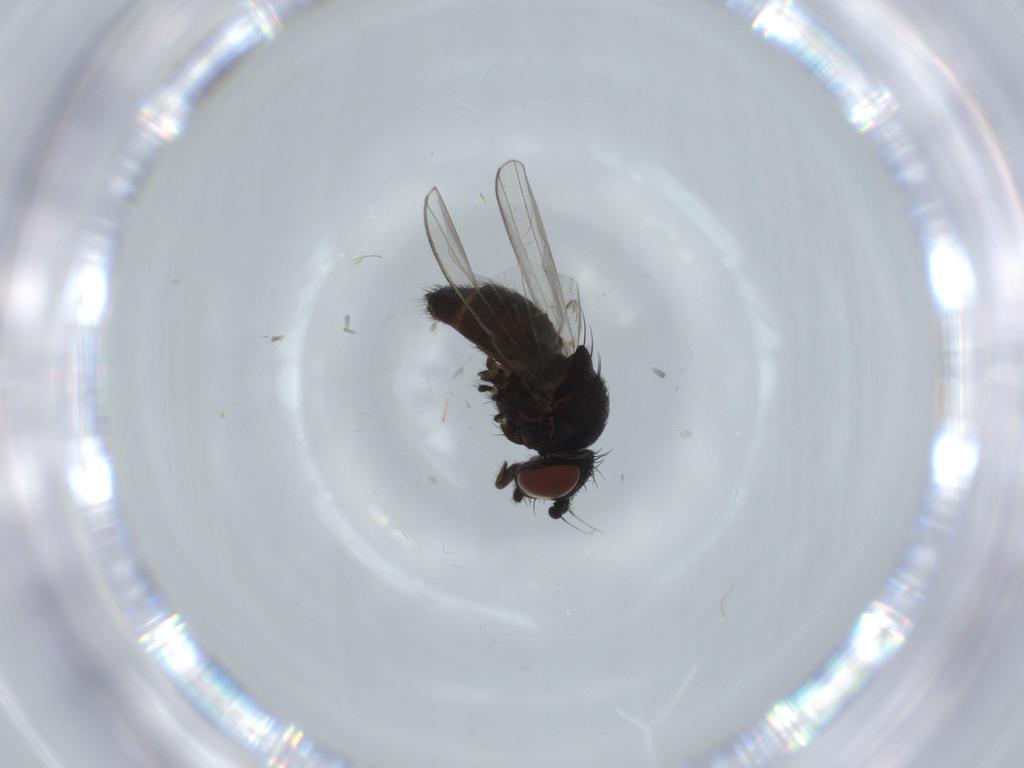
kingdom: Animalia
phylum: Arthropoda
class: Insecta
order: Diptera
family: Milichiidae
